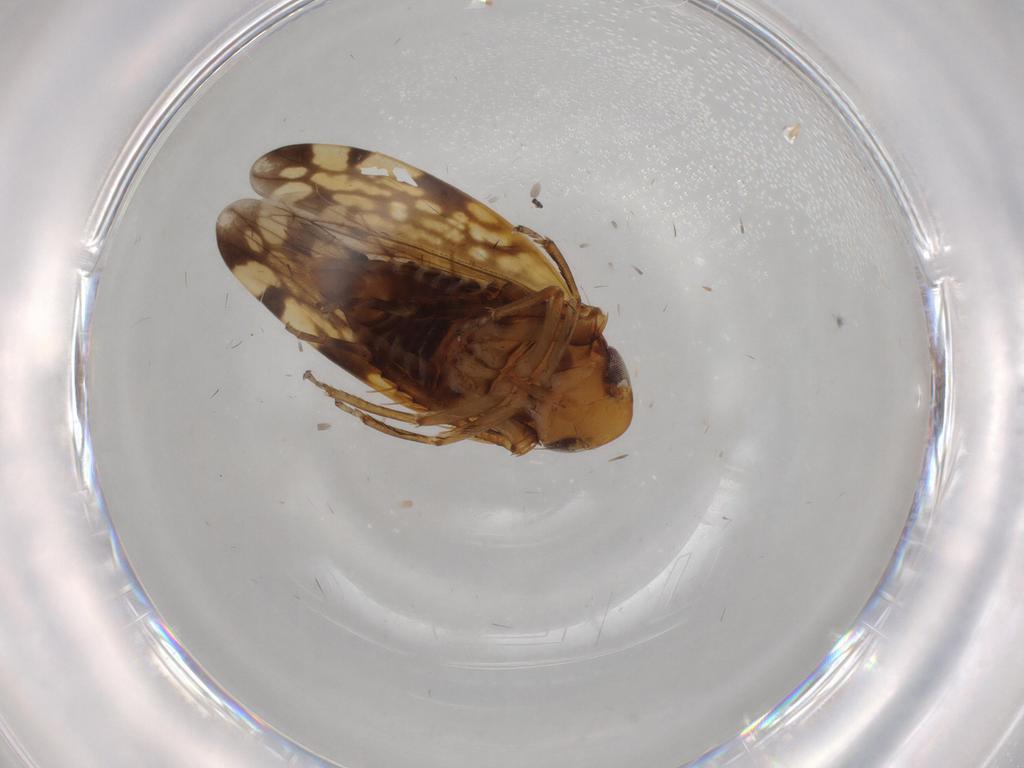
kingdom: Animalia
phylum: Arthropoda
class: Insecta
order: Hemiptera
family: Cicadellidae
